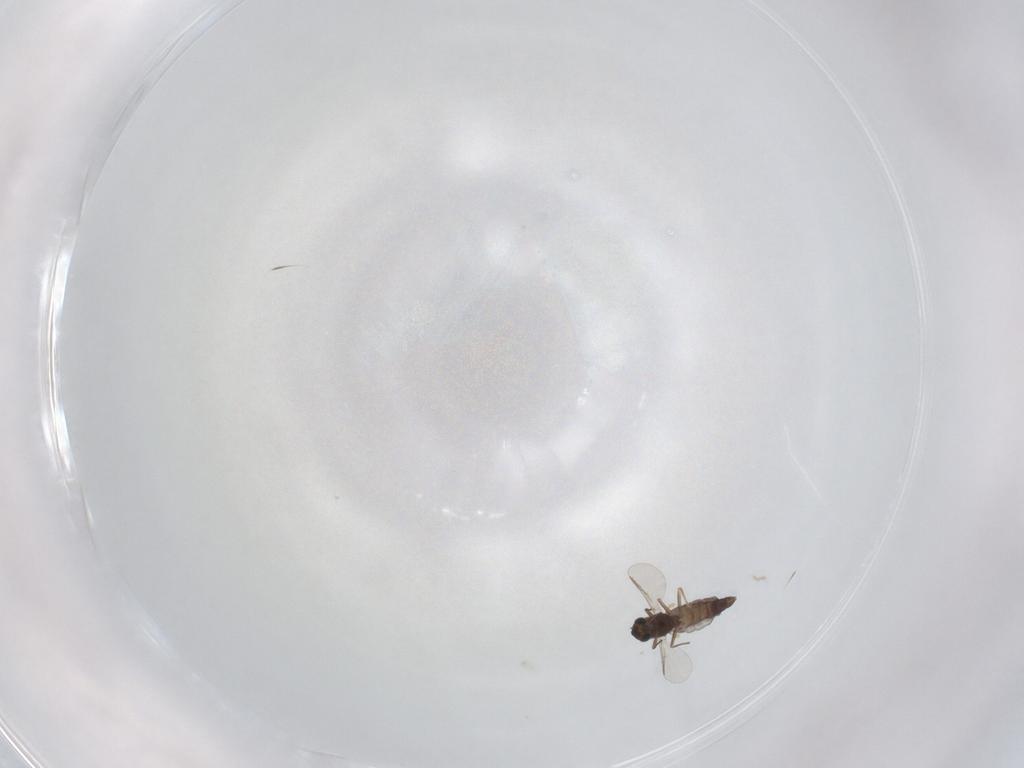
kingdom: Animalia
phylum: Arthropoda
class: Insecta
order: Diptera
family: Chironomidae
